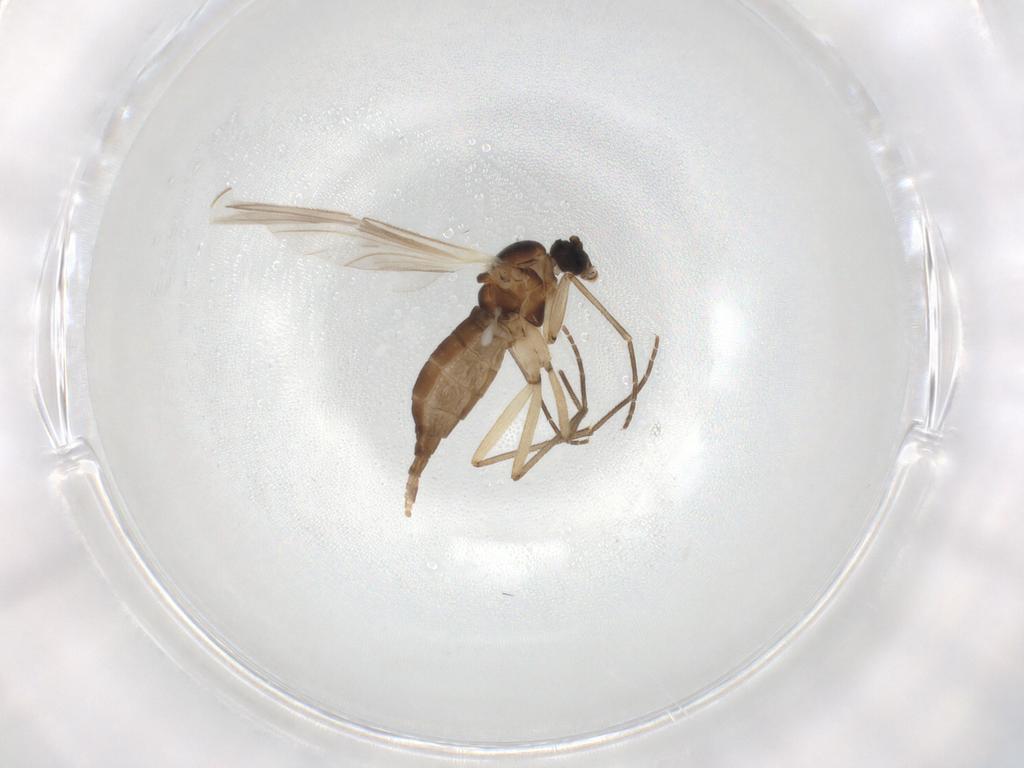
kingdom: Animalia
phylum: Arthropoda
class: Insecta
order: Diptera
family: Sciaridae
